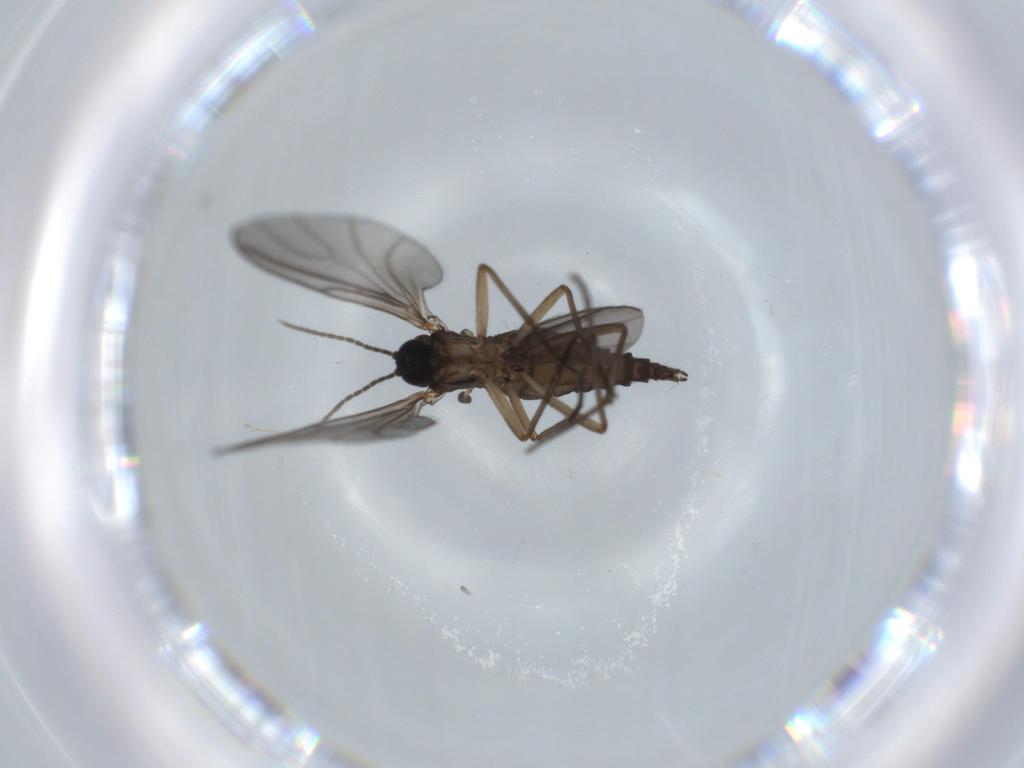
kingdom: Animalia
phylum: Arthropoda
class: Insecta
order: Diptera
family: Sciaridae
